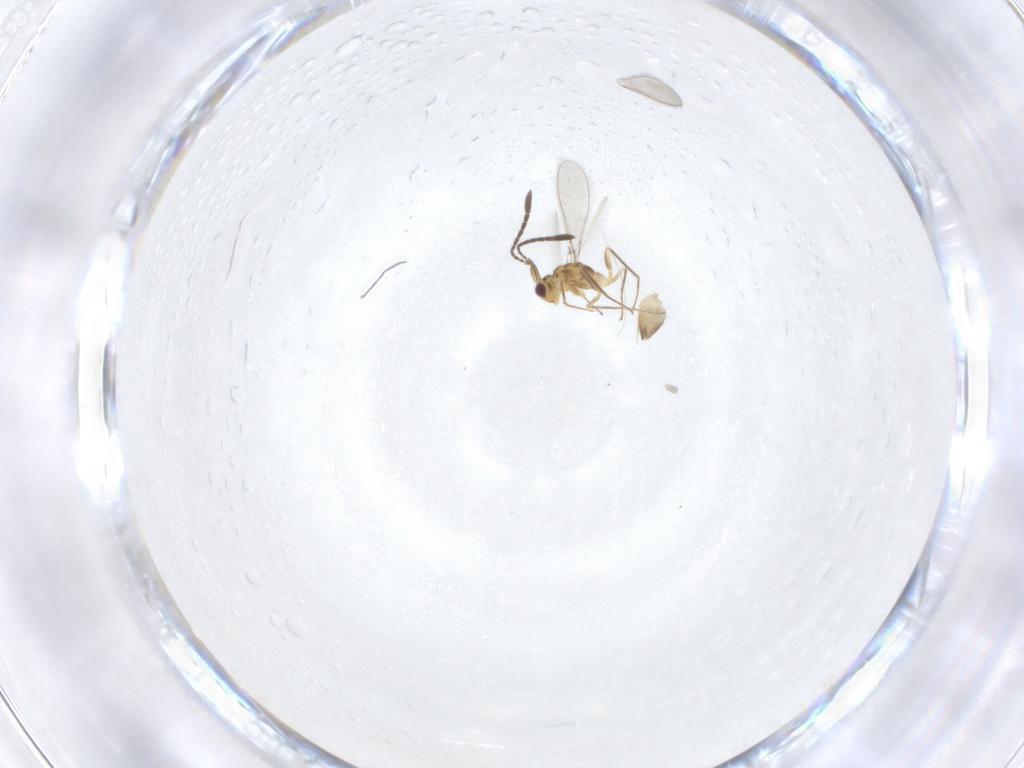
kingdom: Animalia
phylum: Arthropoda
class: Insecta
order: Hymenoptera
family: Mymaridae
